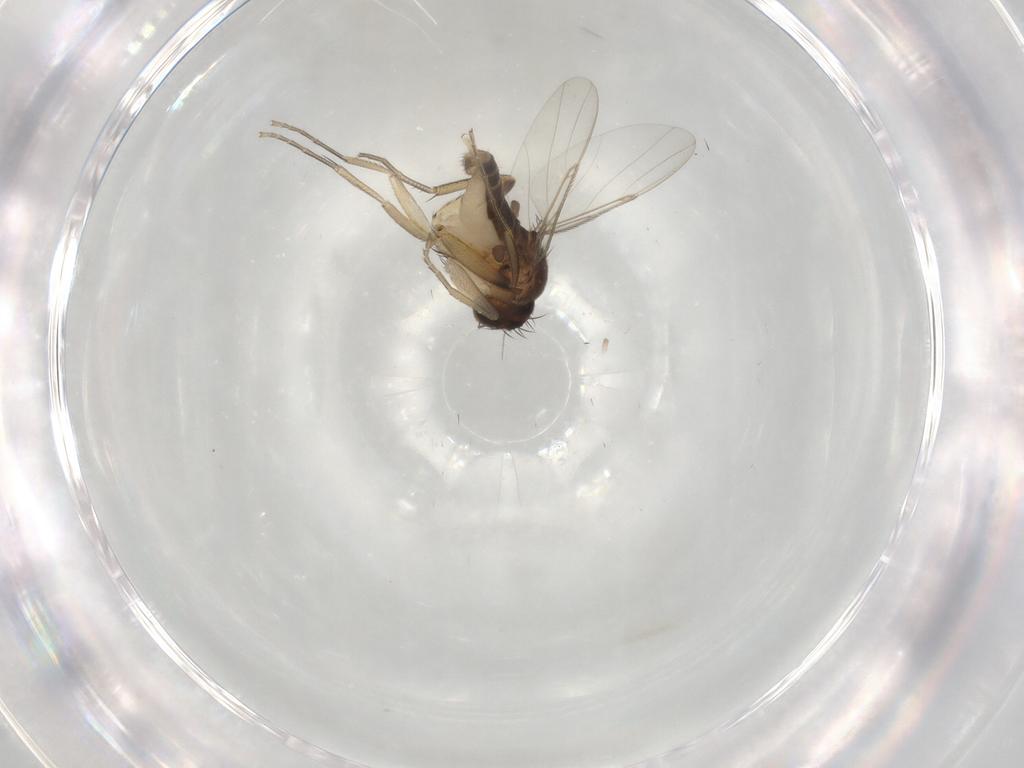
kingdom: Animalia
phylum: Arthropoda
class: Insecta
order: Diptera
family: Phoridae
